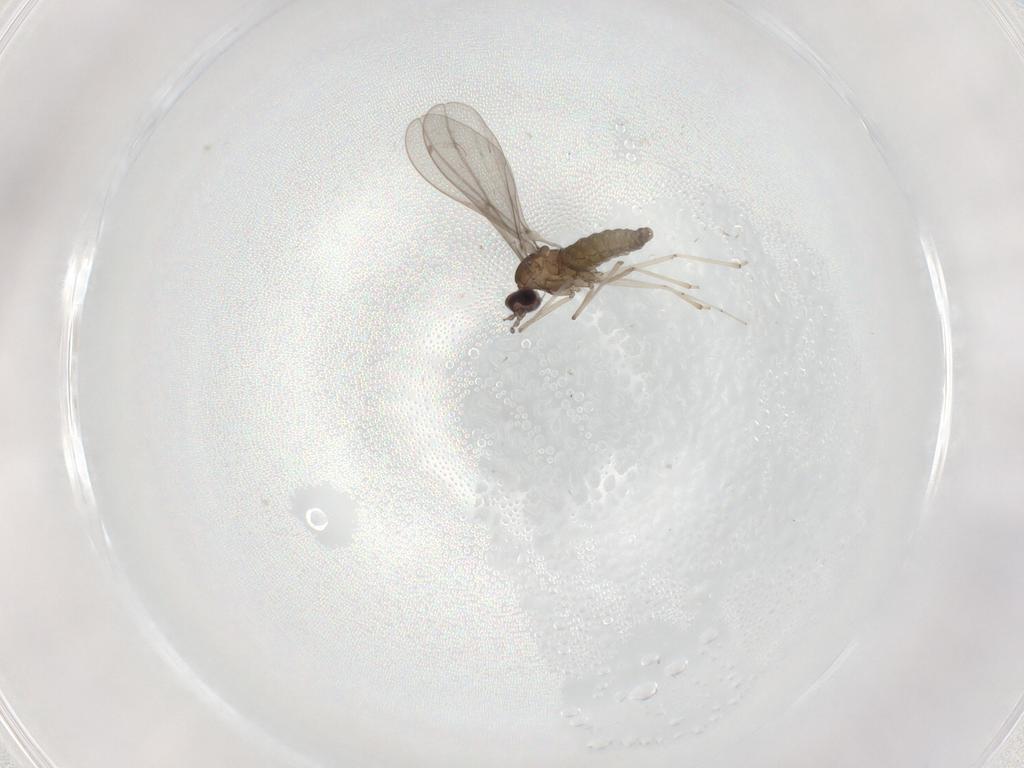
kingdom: Animalia
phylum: Arthropoda
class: Insecta
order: Diptera
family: Cecidomyiidae
